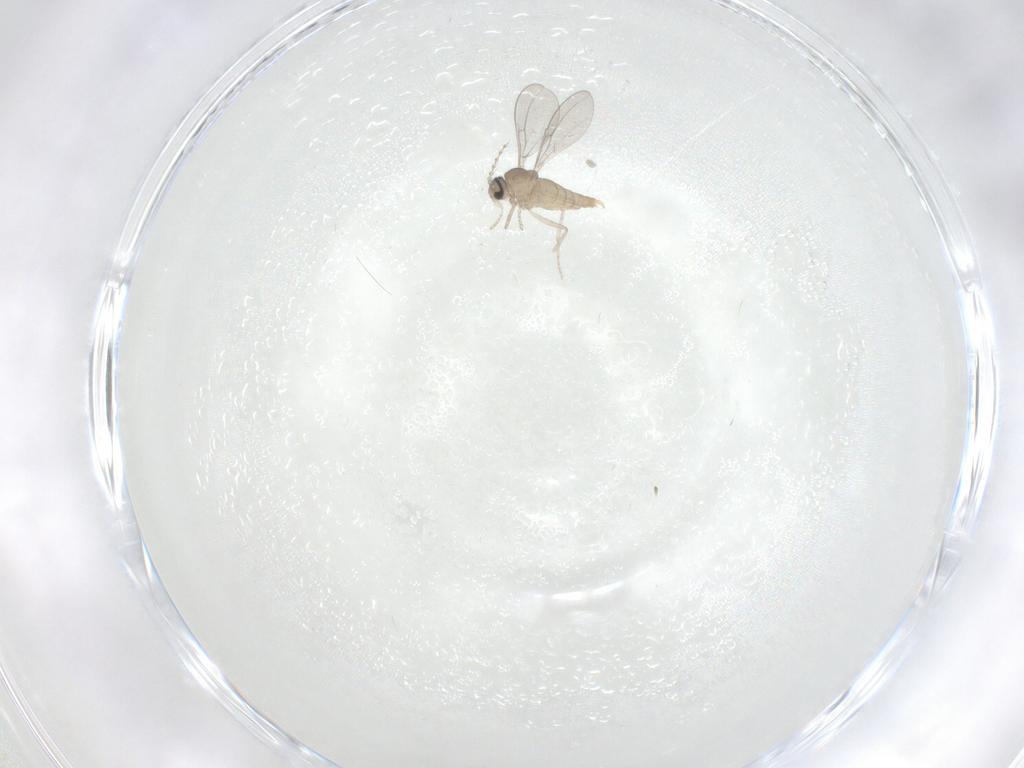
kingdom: Animalia
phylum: Arthropoda
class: Insecta
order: Diptera
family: Cecidomyiidae
